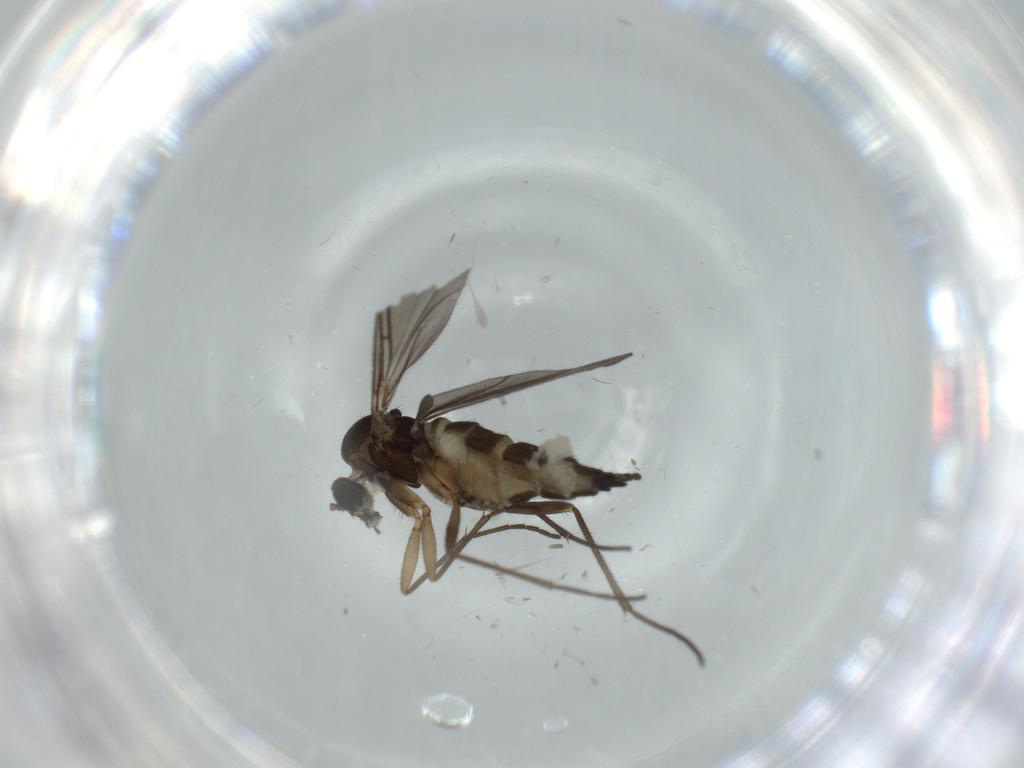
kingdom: Animalia
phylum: Arthropoda
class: Insecta
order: Diptera
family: Sciaridae
